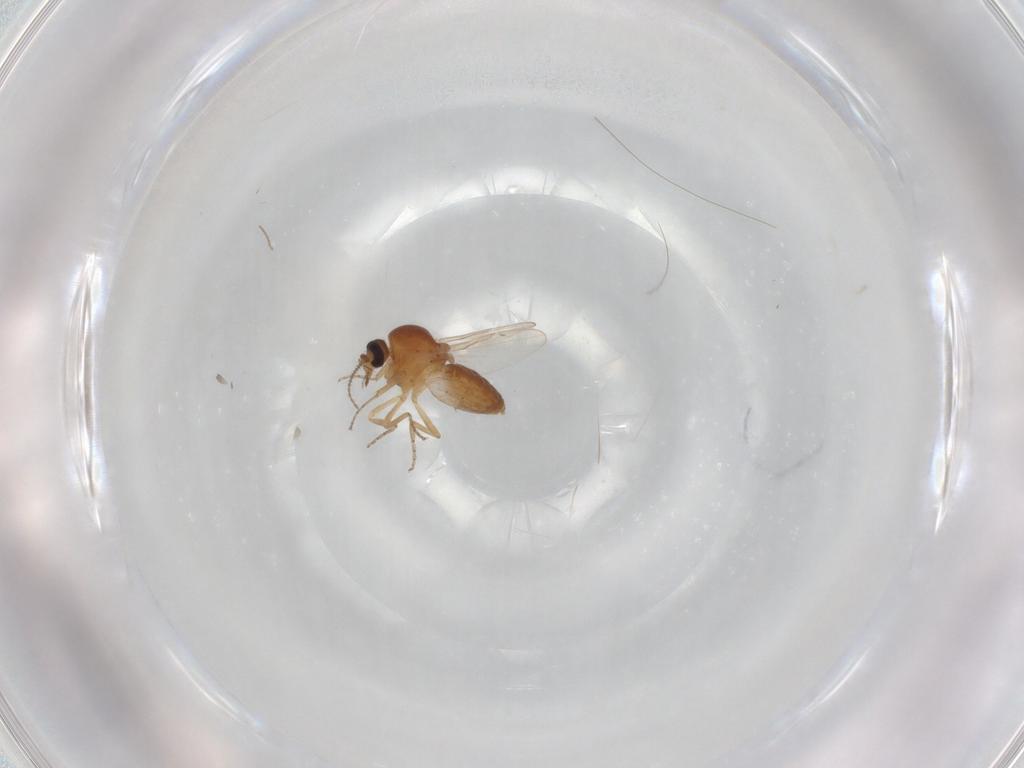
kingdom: Animalia
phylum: Arthropoda
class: Insecta
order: Diptera
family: Ceratopogonidae
